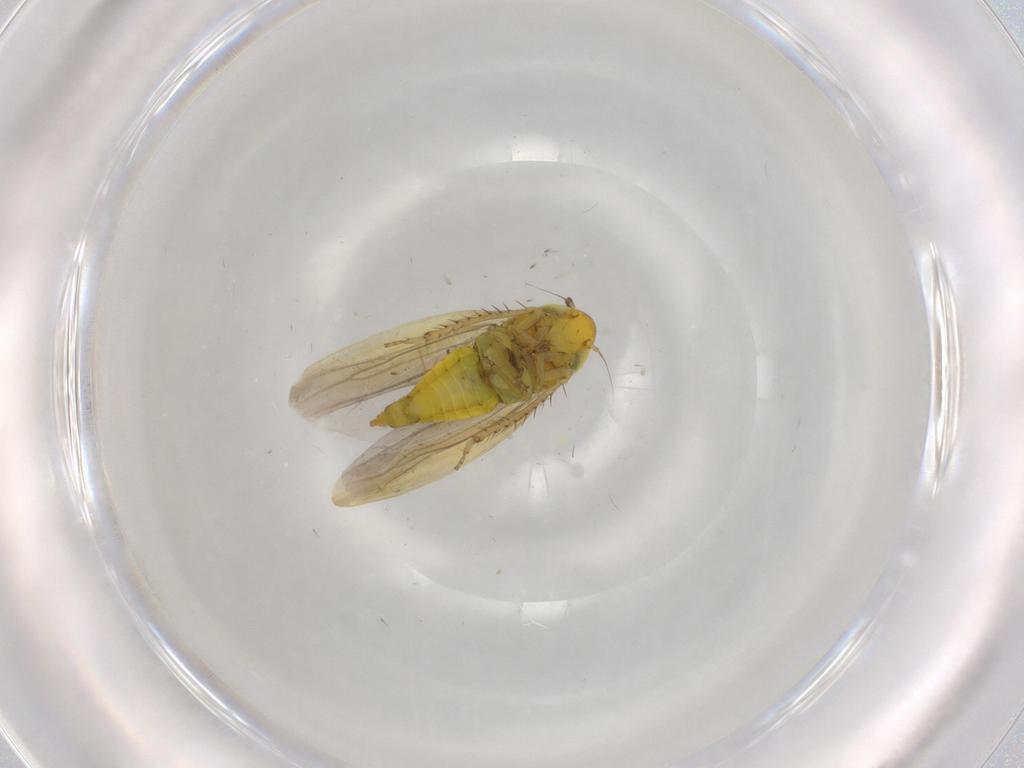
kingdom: Animalia
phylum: Arthropoda
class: Insecta
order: Hemiptera
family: Cicadellidae
